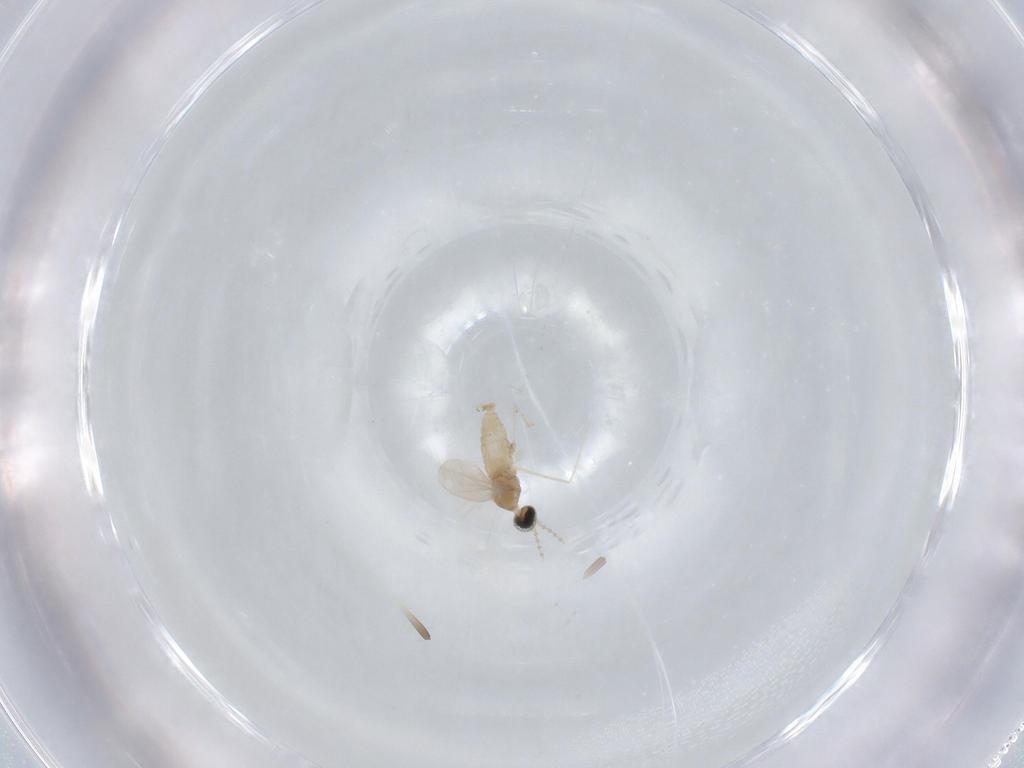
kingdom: Animalia
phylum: Arthropoda
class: Insecta
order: Diptera
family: Cecidomyiidae
